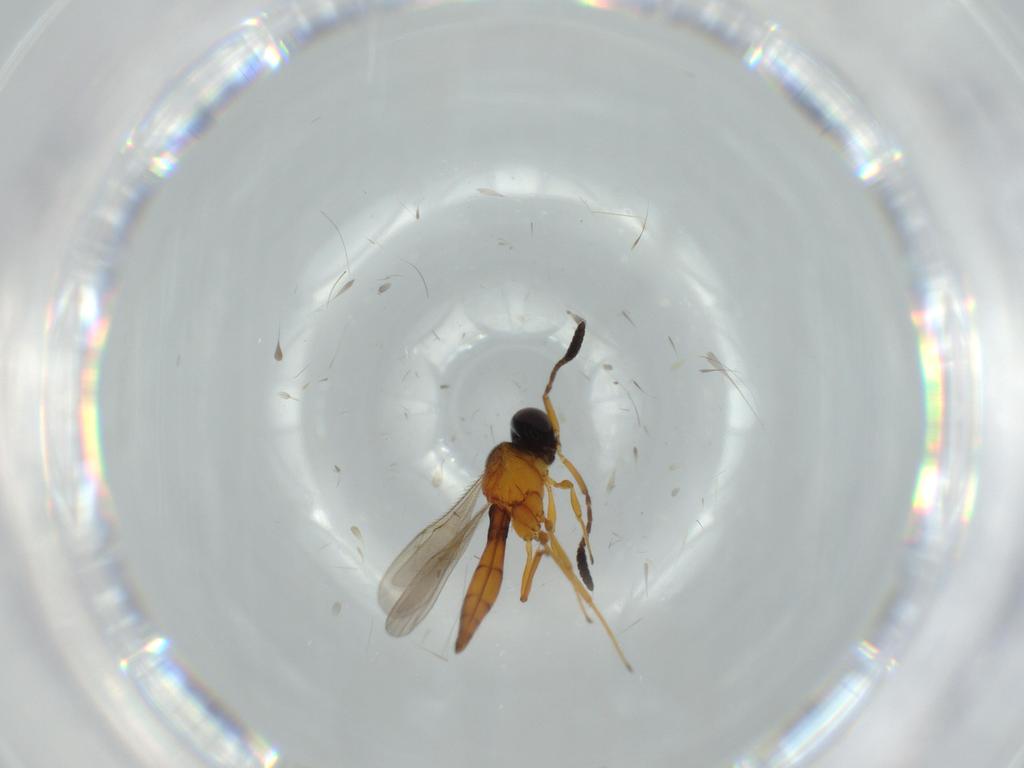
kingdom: Animalia
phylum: Arthropoda
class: Insecta
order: Hymenoptera
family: Scelionidae
